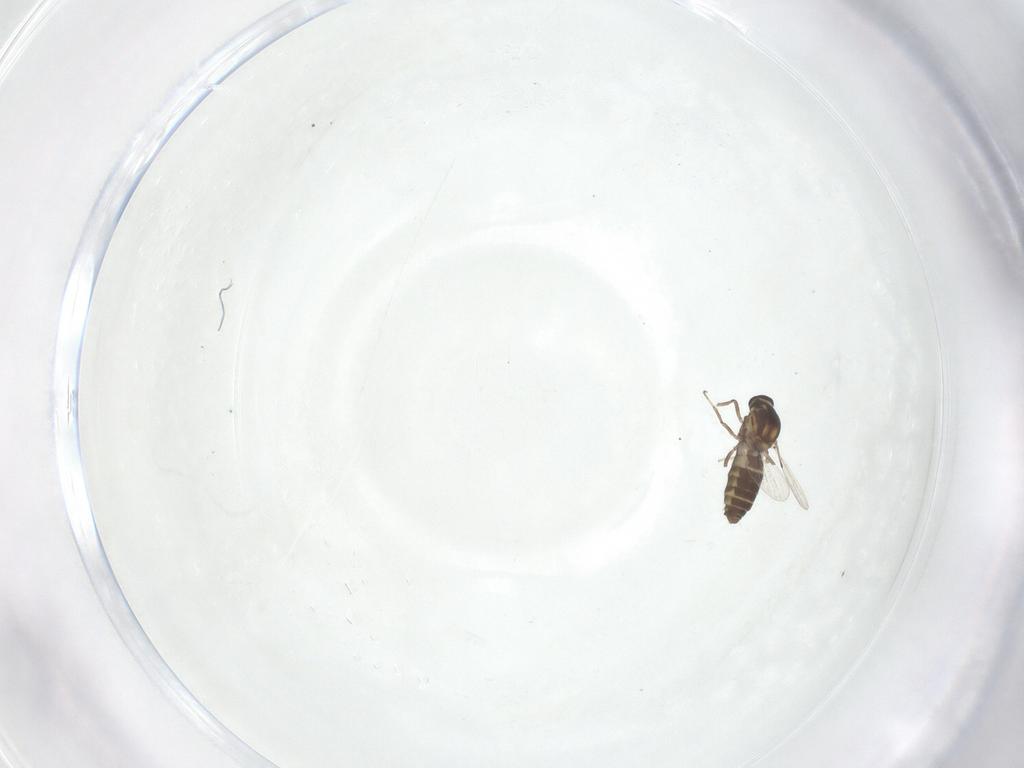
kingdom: Animalia
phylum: Arthropoda
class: Insecta
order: Diptera
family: Ceratopogonidae
